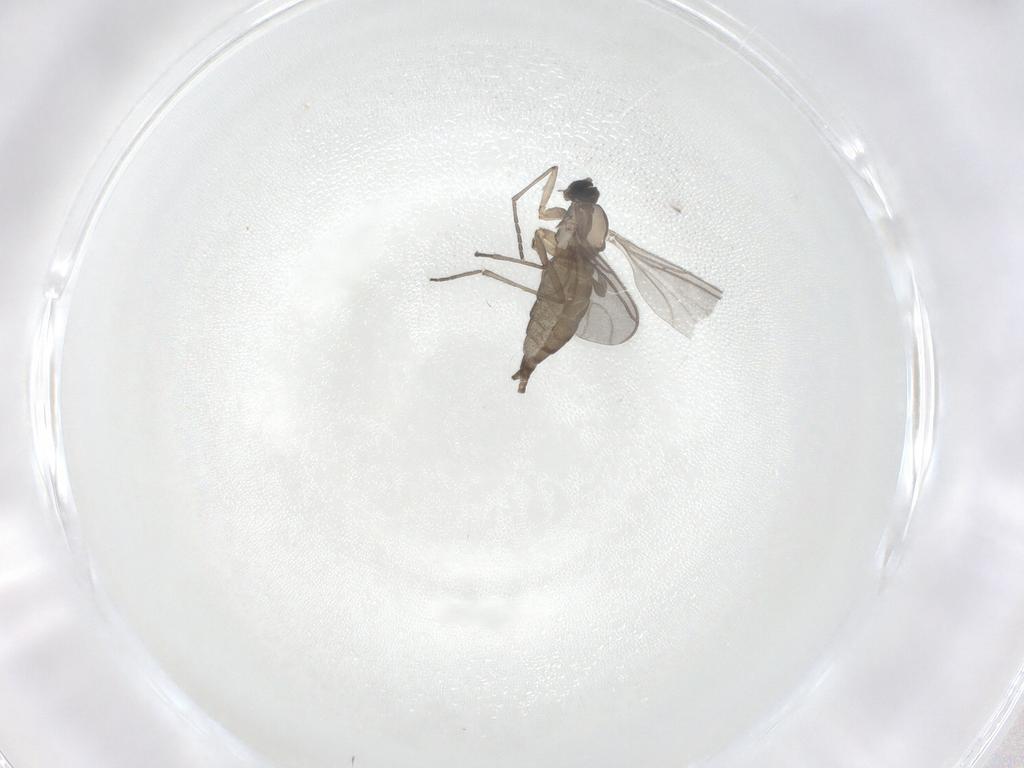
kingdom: Animalia
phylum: Arthropoda
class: Insecta
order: Diptera
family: Sciaridae
